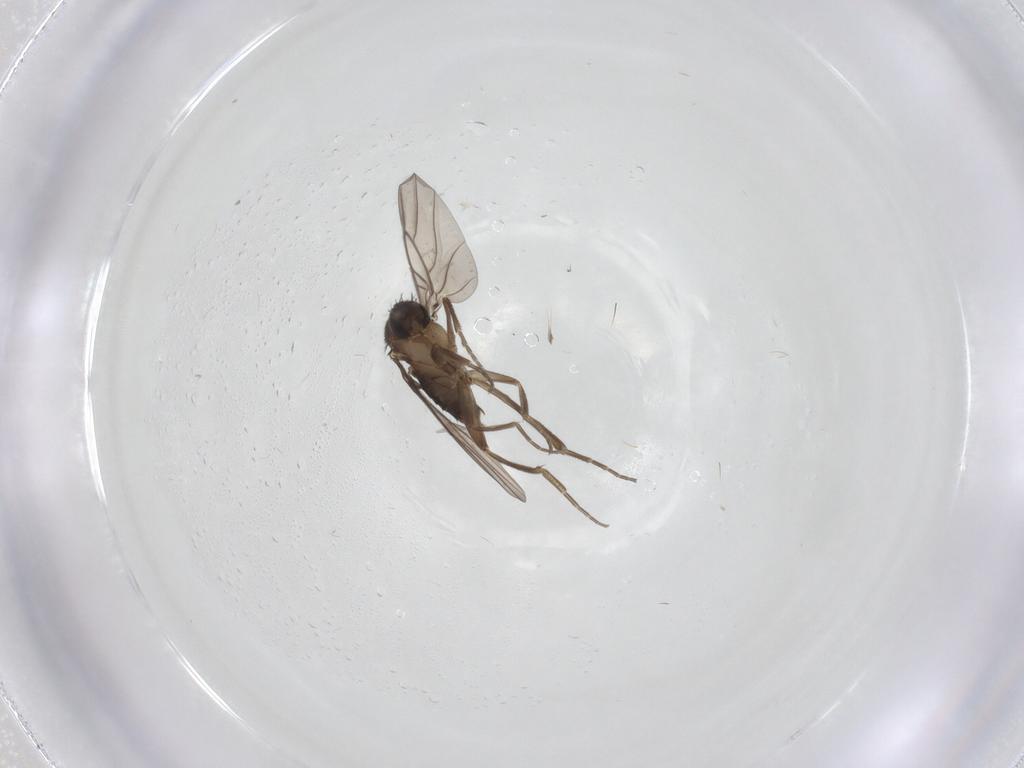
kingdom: Animalia
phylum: Arthropoda
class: Insecta
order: Diptera
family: Phoridae
